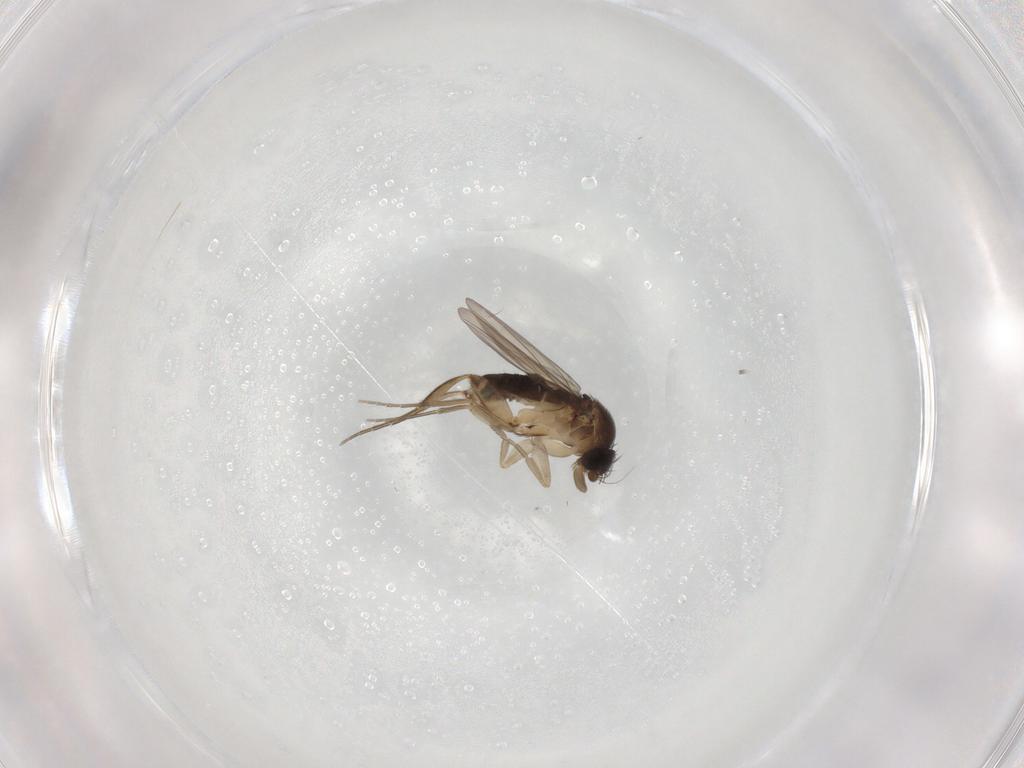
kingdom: Animalia
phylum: Arthropoda
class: Insecta
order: Diptera
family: Phoridae
